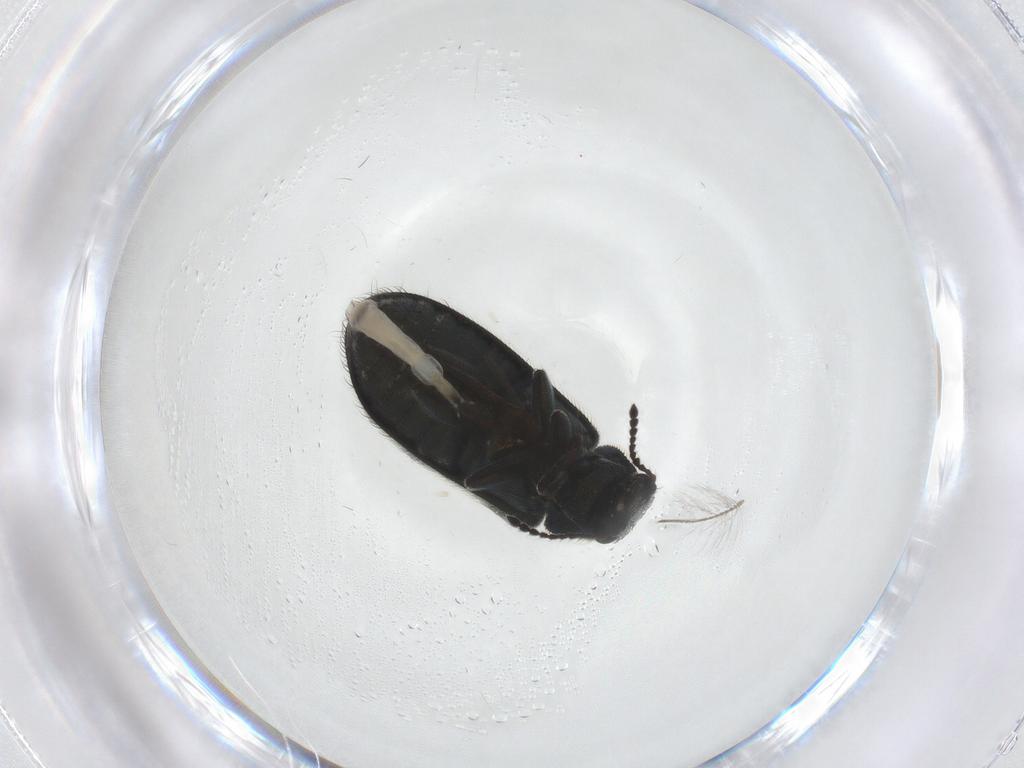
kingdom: Animalia
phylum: Arthropoda
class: Insecta
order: Coleoptera
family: Melyridae
